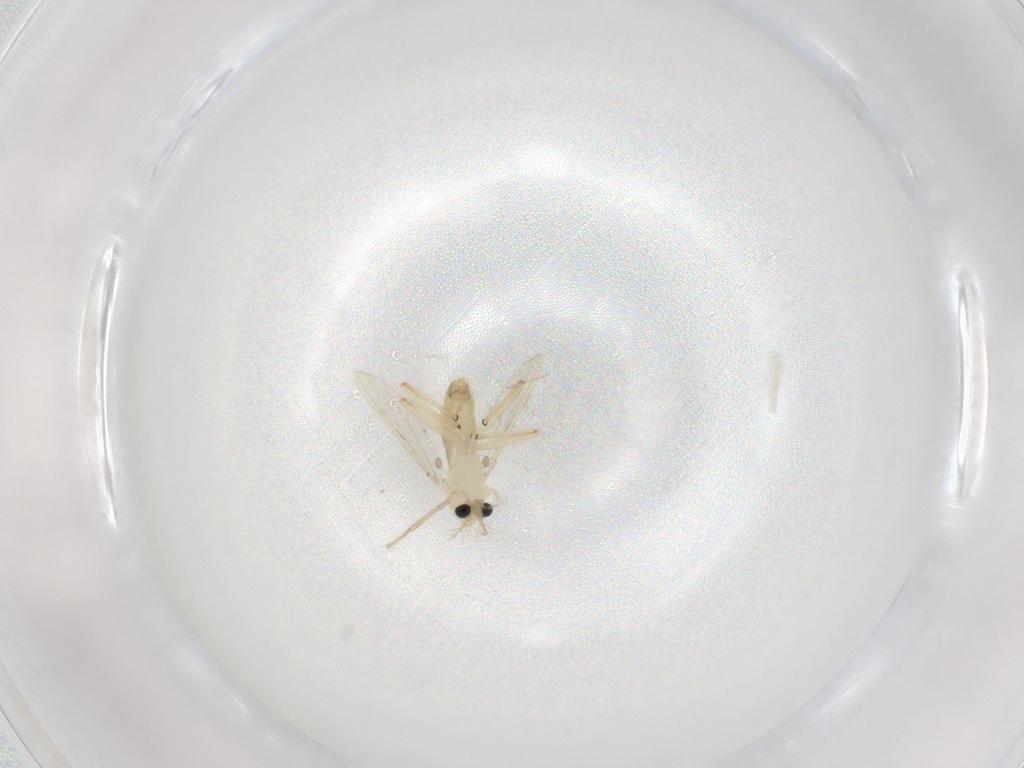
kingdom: Animalia
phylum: Arthropoda
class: Insecta
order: Diptera
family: Chironomidae
